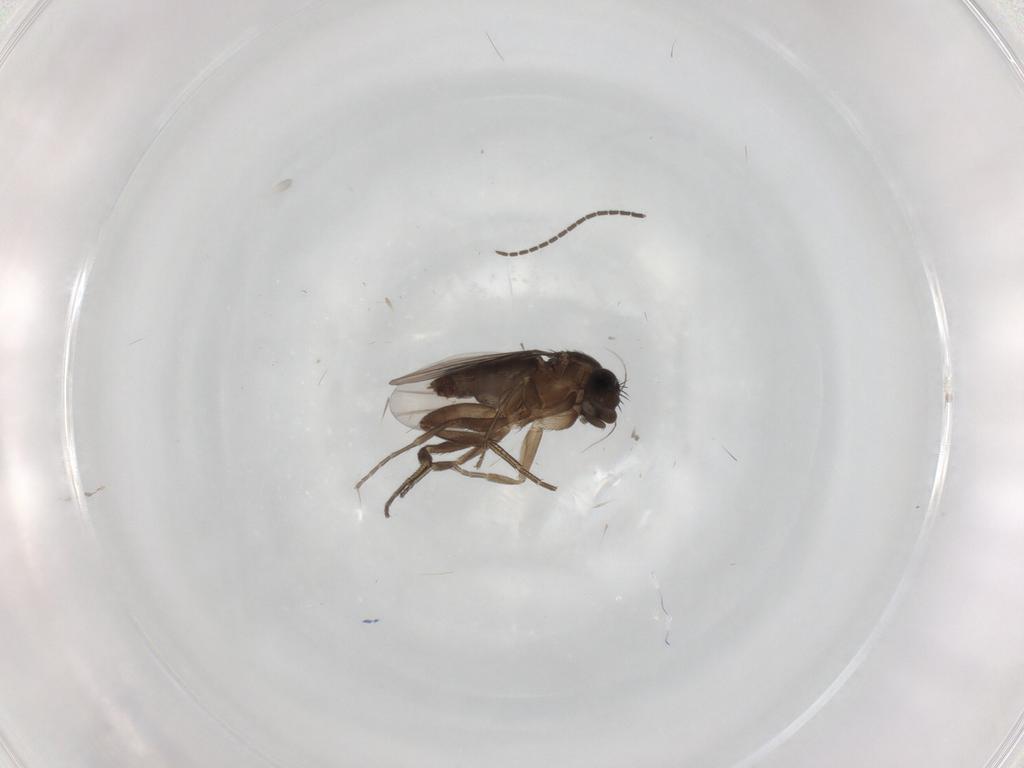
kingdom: Animalia
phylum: Arthropoda
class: Insecta
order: Diptera
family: Phoridae
